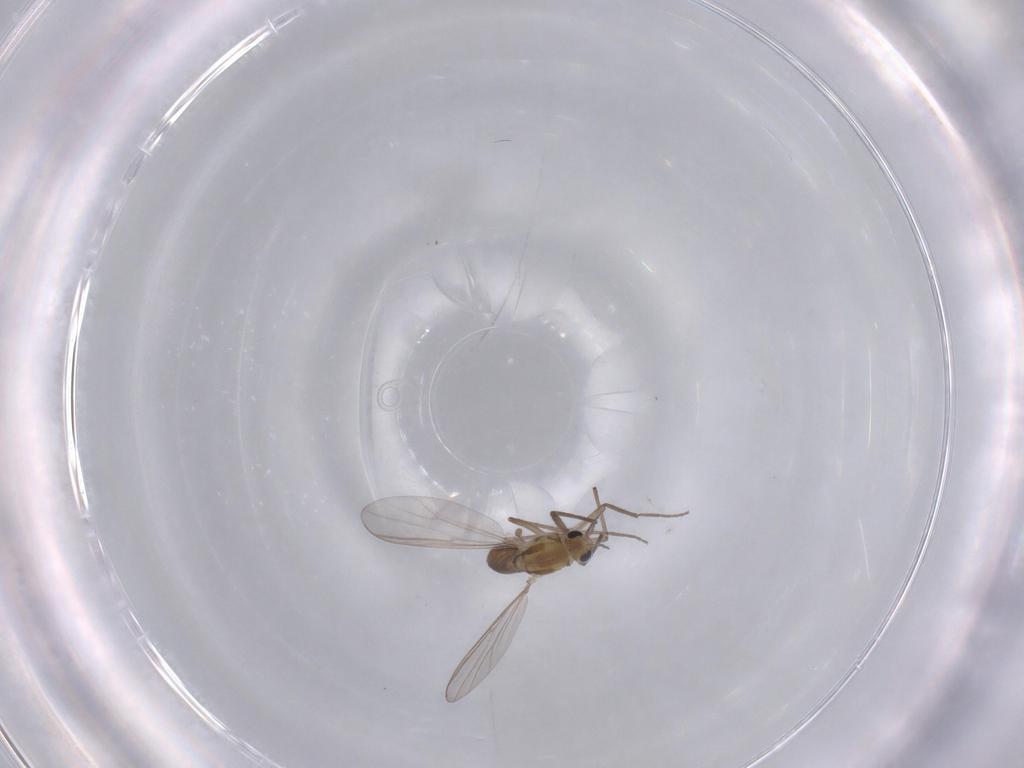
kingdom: Animalia
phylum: Arthropoda
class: Insecta
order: Diptera
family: Chironomidae
